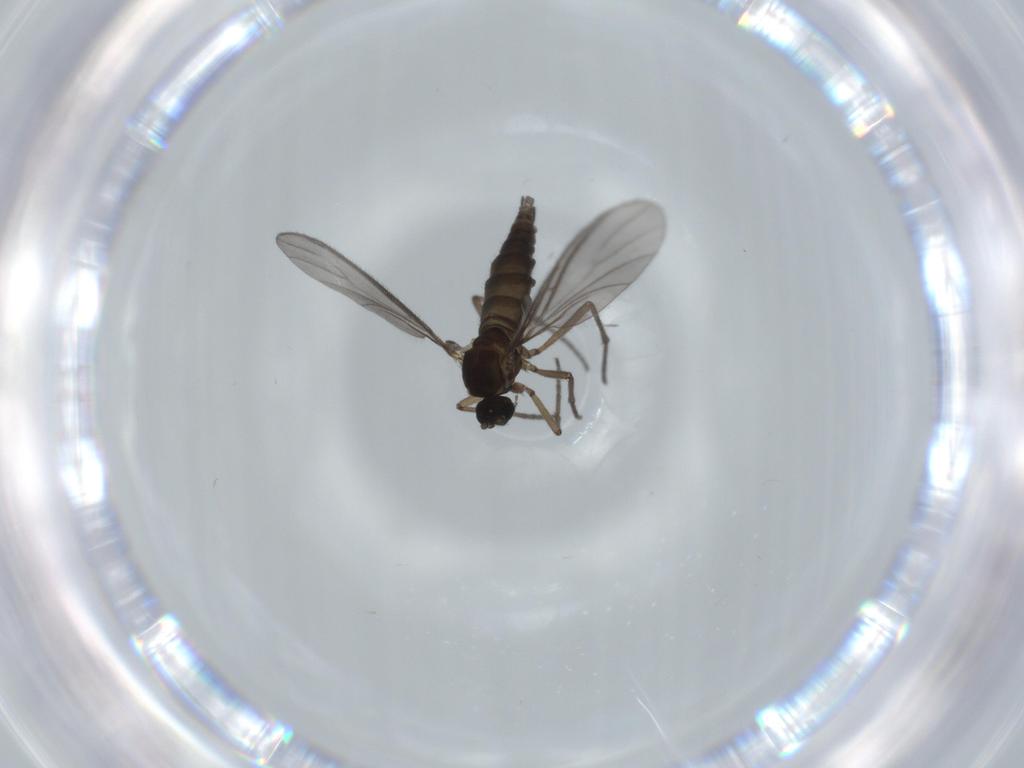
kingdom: Animalia
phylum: Arthropoda
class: Insecta
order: Diptera
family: Sciaridae
